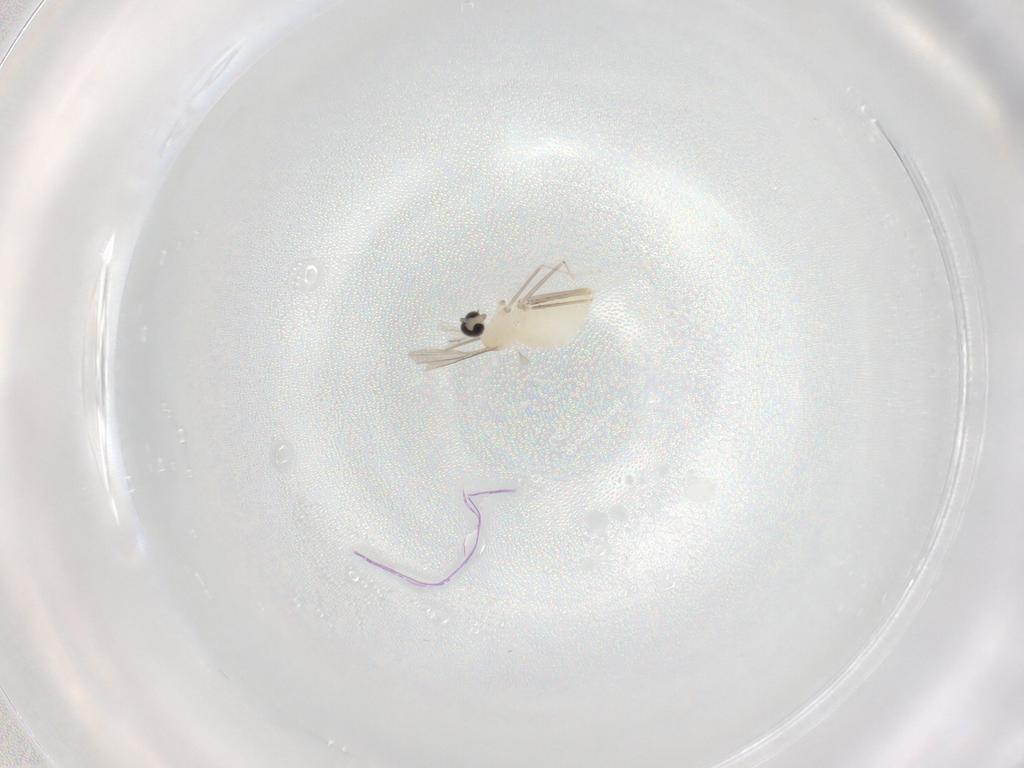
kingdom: Animalia
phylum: Arthropoda
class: Insecta
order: Diptera
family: Cecidomyiidae
